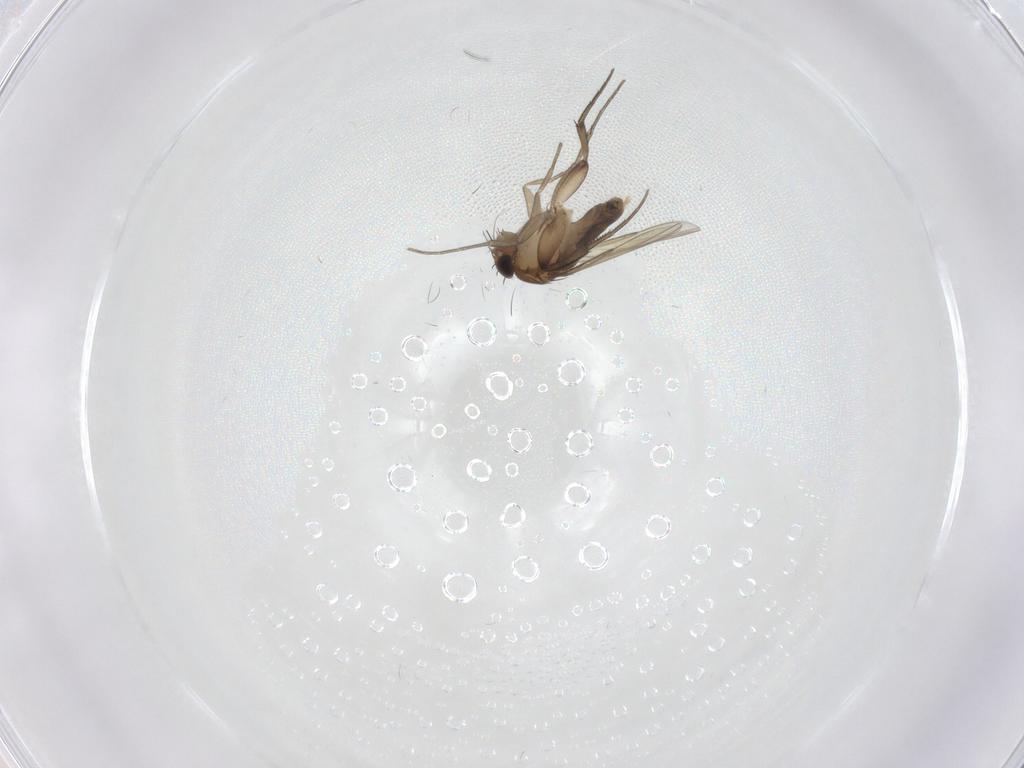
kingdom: Animalia
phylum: Arthropoda
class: Insecta
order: Diptera
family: Phoridae
